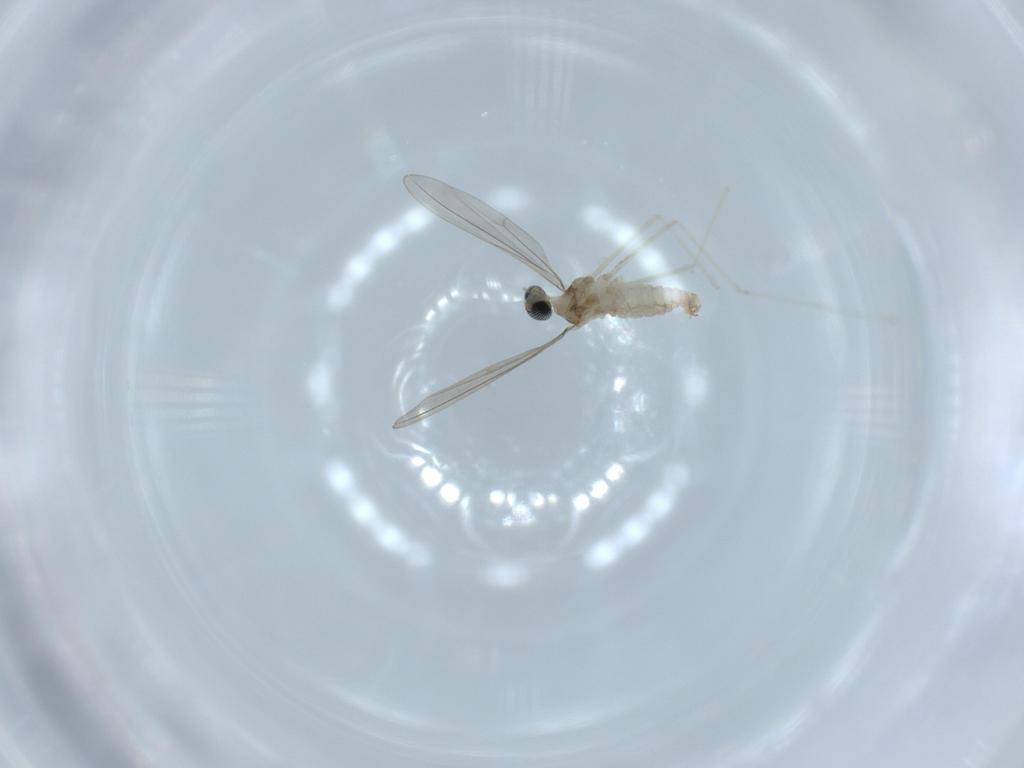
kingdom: Animalia
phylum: Arthropoda
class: Insecta
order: Diptera
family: Cecidomyiidae
